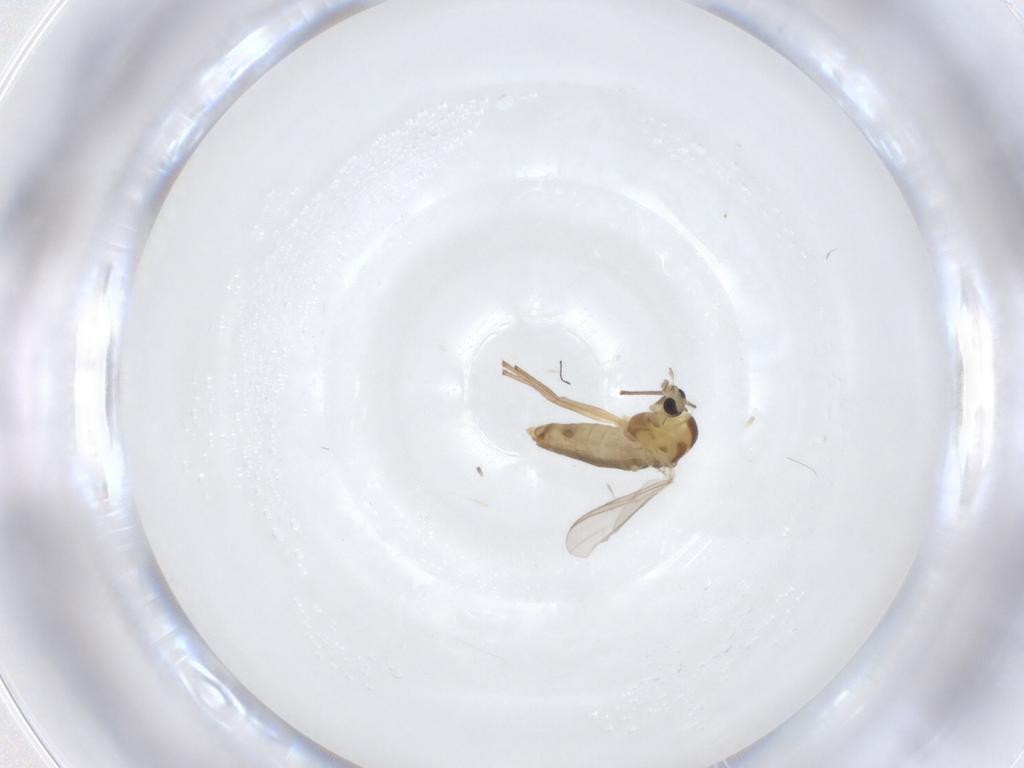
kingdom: Animalia
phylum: Arthropoda
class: Insecta
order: Diptera
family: Chironomidae
